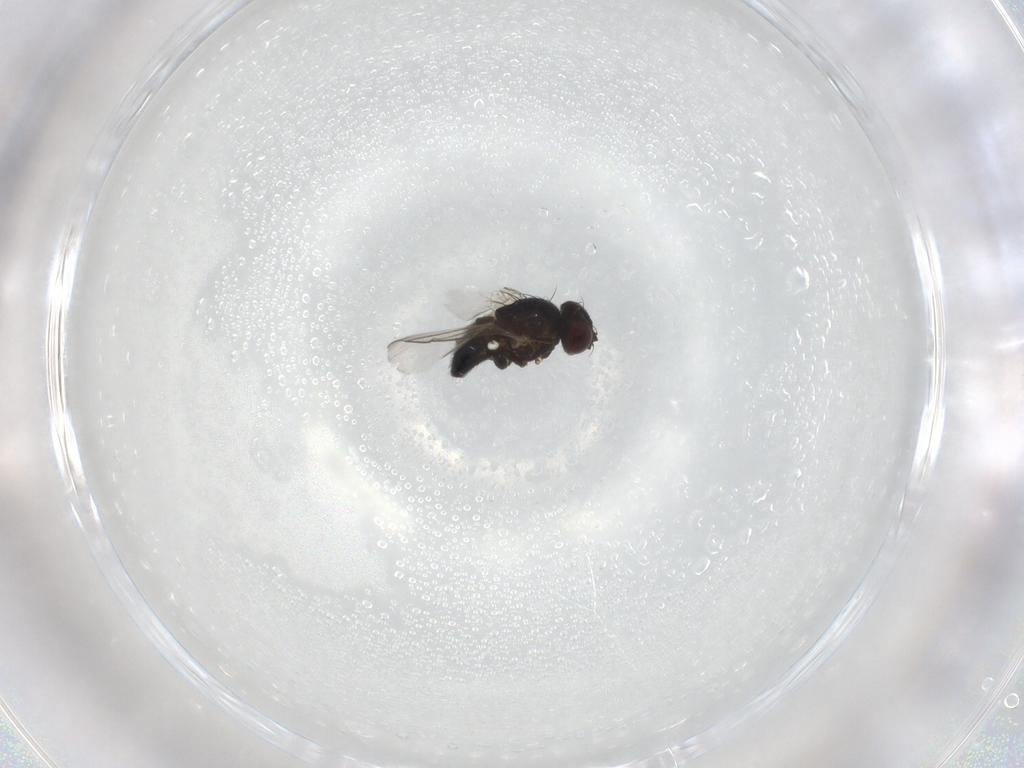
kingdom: Animalia
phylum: Arthropoda
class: Insecta
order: Diptera
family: Agromyzidae
